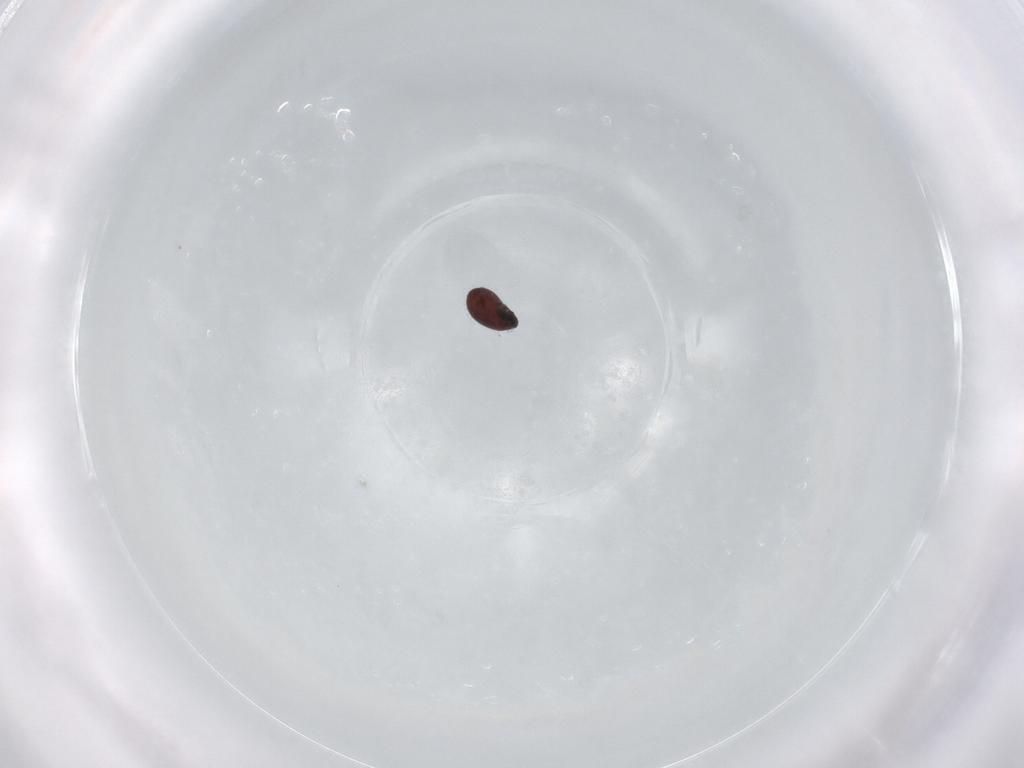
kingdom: Animalia
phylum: Arthropoda
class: Arachnida
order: Sarcoptiformes
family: Punctoribatidae
